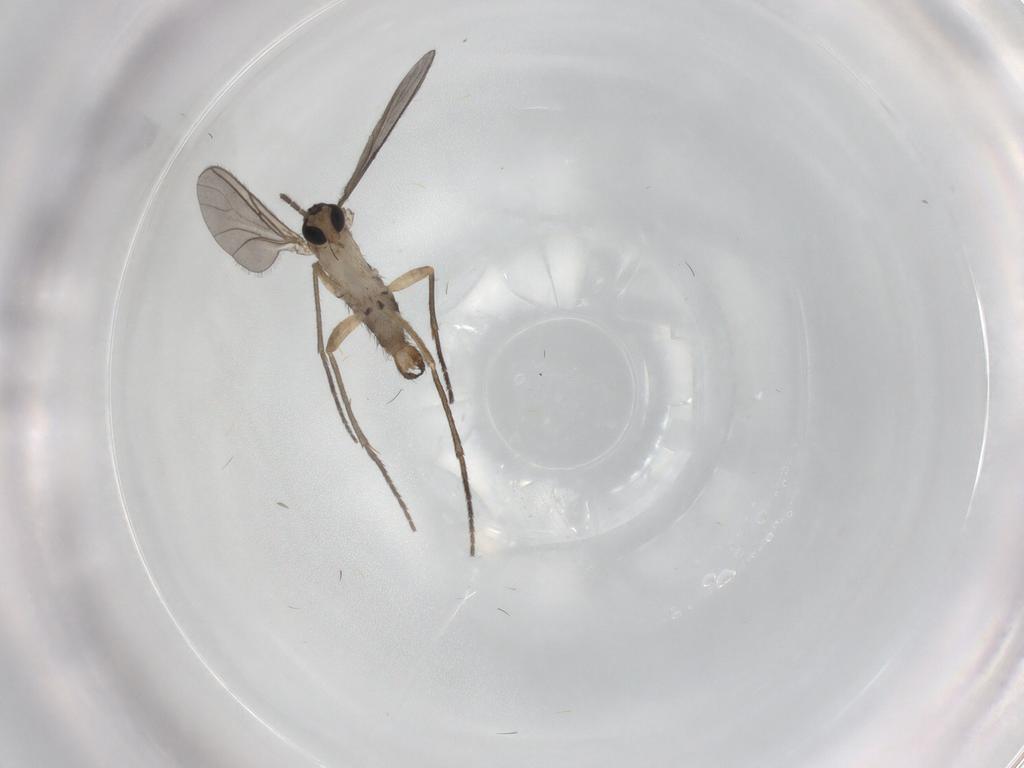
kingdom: Animalia
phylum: Arthropoda
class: Insecta
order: Diptera
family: Sciaridae
